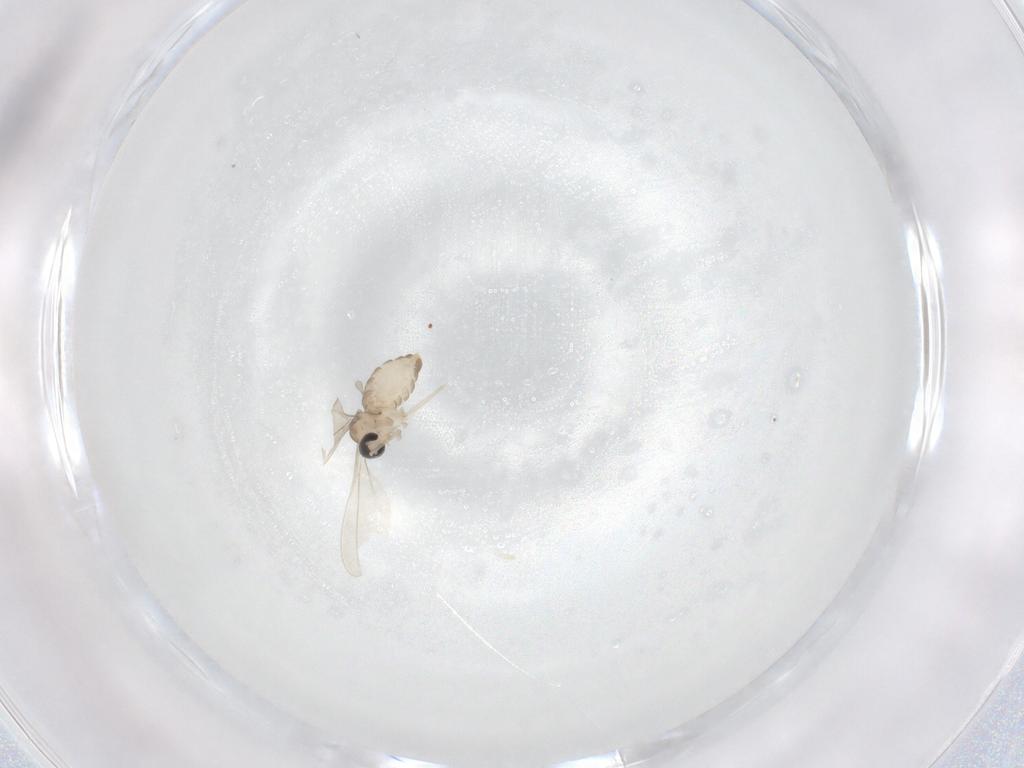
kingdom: Animalia
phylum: Arthropoda
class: Insecta
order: Diptera
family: Cecidomyiidae
